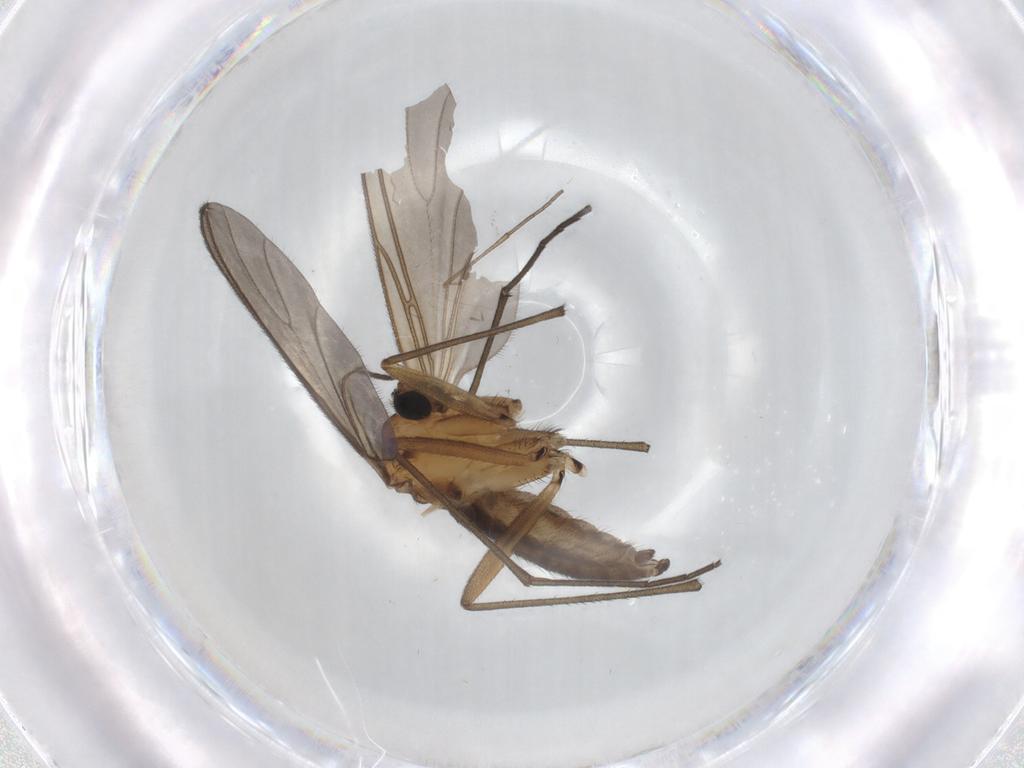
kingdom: Animalia
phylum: Arthropoda
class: Insecta
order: Diptera
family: Sciaridae
